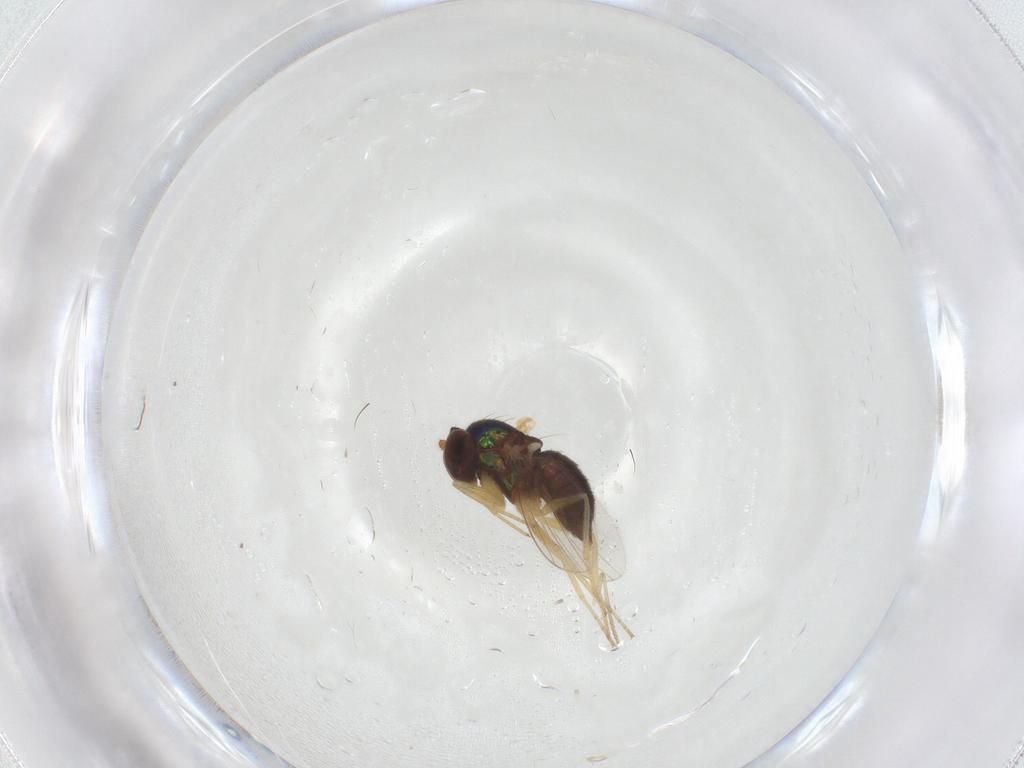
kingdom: Animalia
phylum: Arthropoda
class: Insecta
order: Diptera
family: Dolichopodidae
